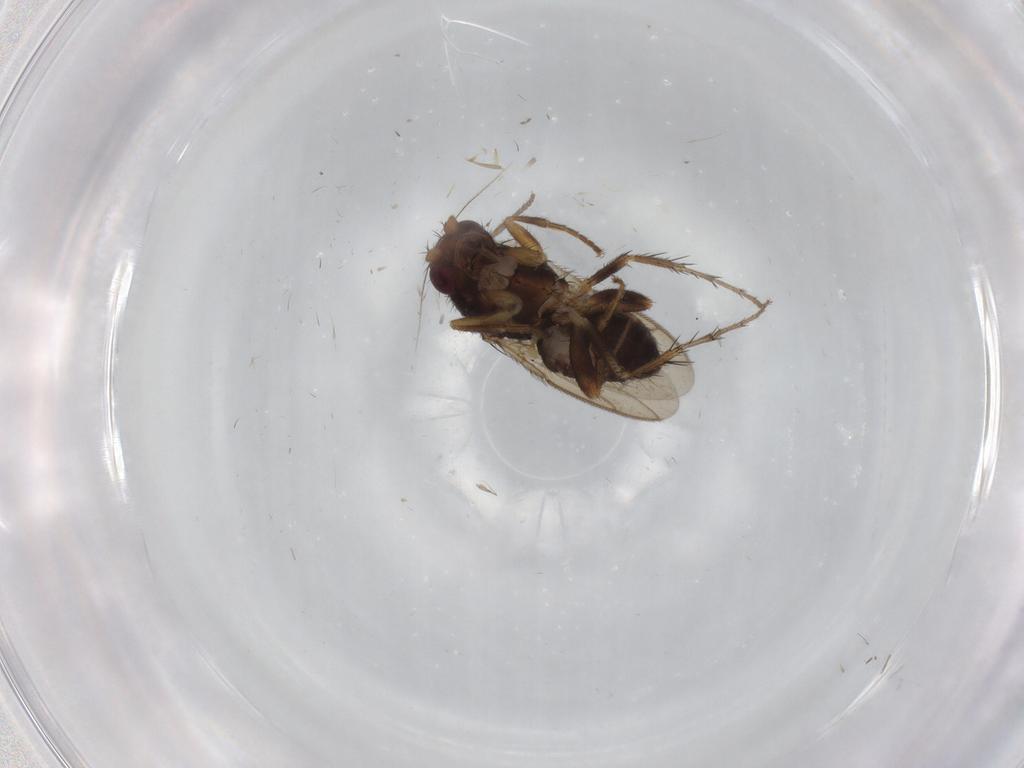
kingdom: Animalia
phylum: Arthropoda
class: Insecta
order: Diptera
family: Sphaeroceridae
